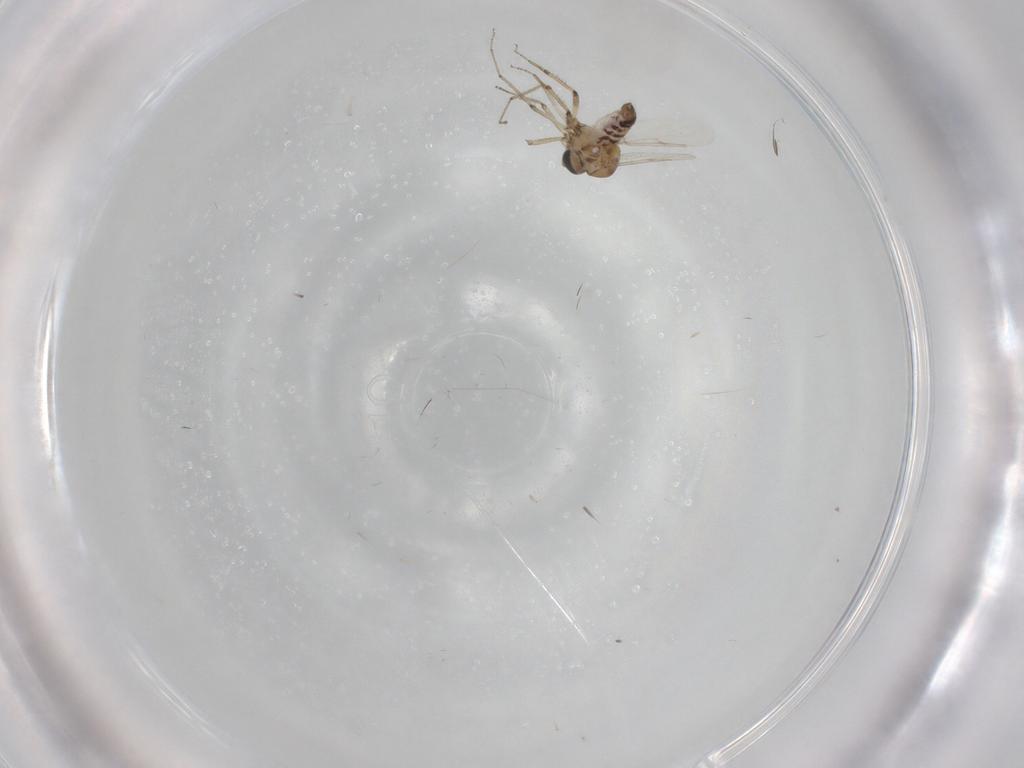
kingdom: Animalia
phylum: Arthropoda
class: Insecta
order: Diptera
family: Ceratopogonidae
